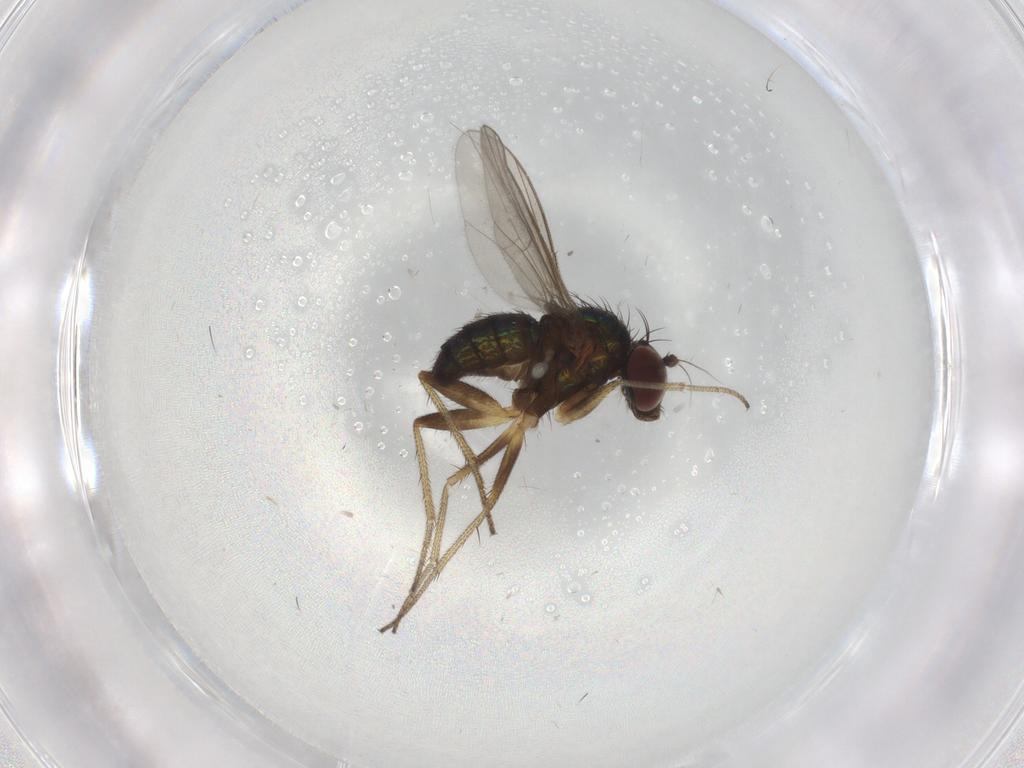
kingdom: Animalia
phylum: Arthropoda
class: Insecta
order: Diptera
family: Dolichopodidae
